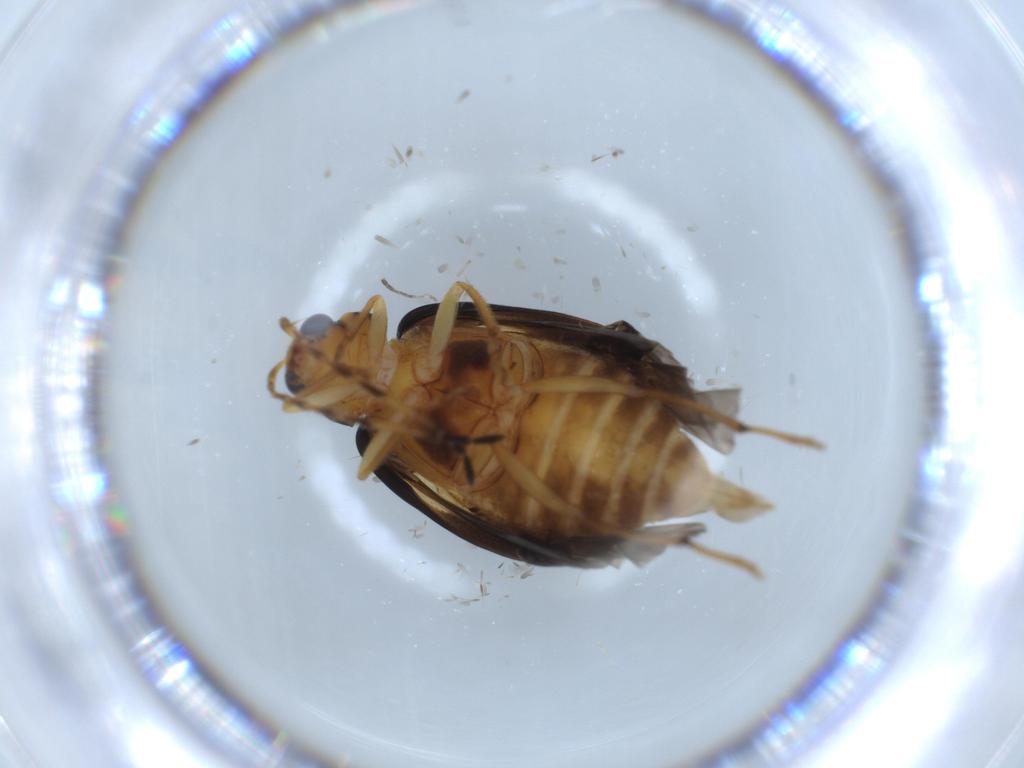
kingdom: Animalia
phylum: Arthropoda
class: Insecta
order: Coleoptera
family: Chrysomelidae
